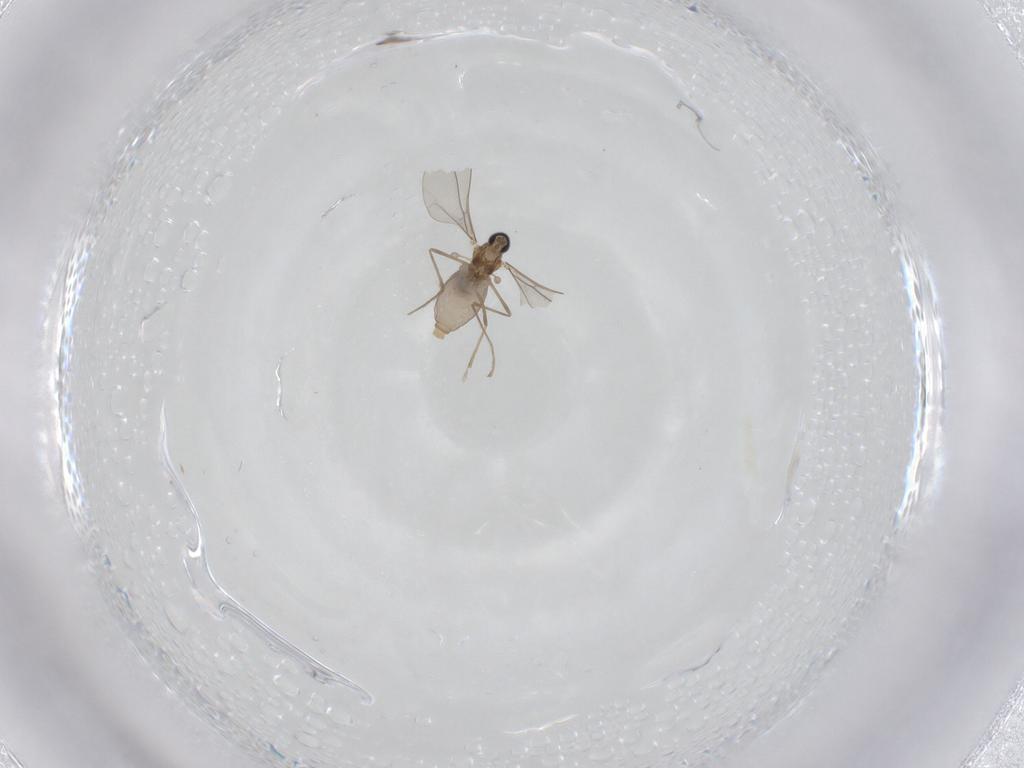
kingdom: Animalia
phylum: Arthropoda
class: Insecta
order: Diptera
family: Cecidomyiidae
